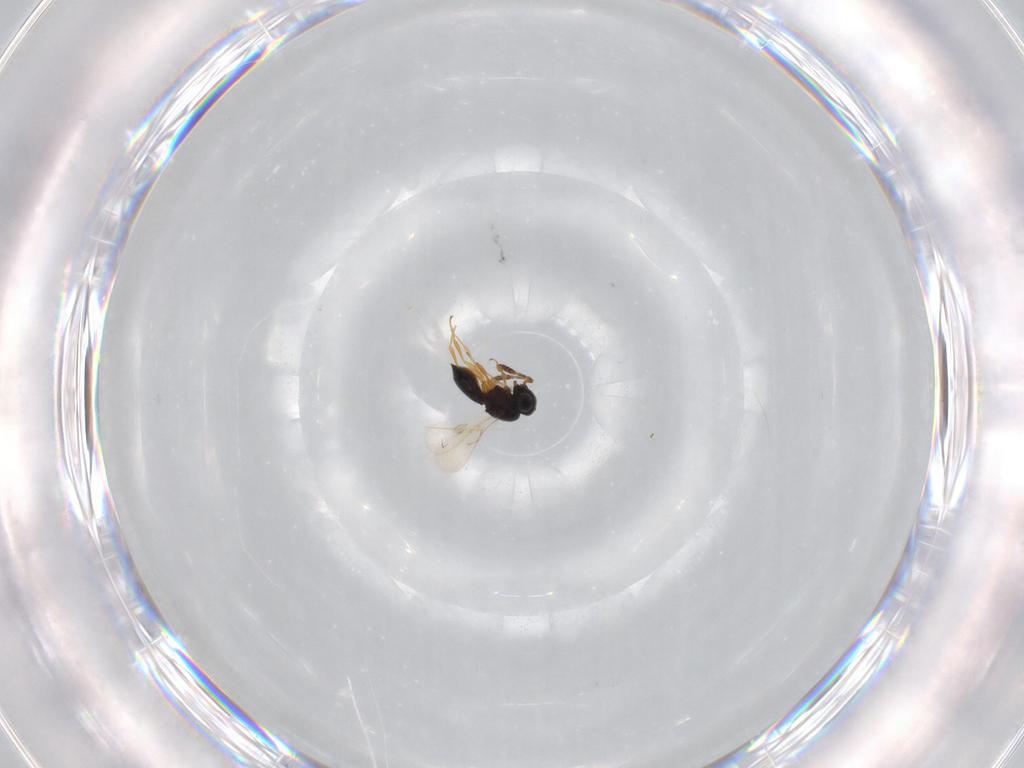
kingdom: Animalia
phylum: Arthropoda
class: Insecta
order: Hymenoptera
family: Scelionidae
